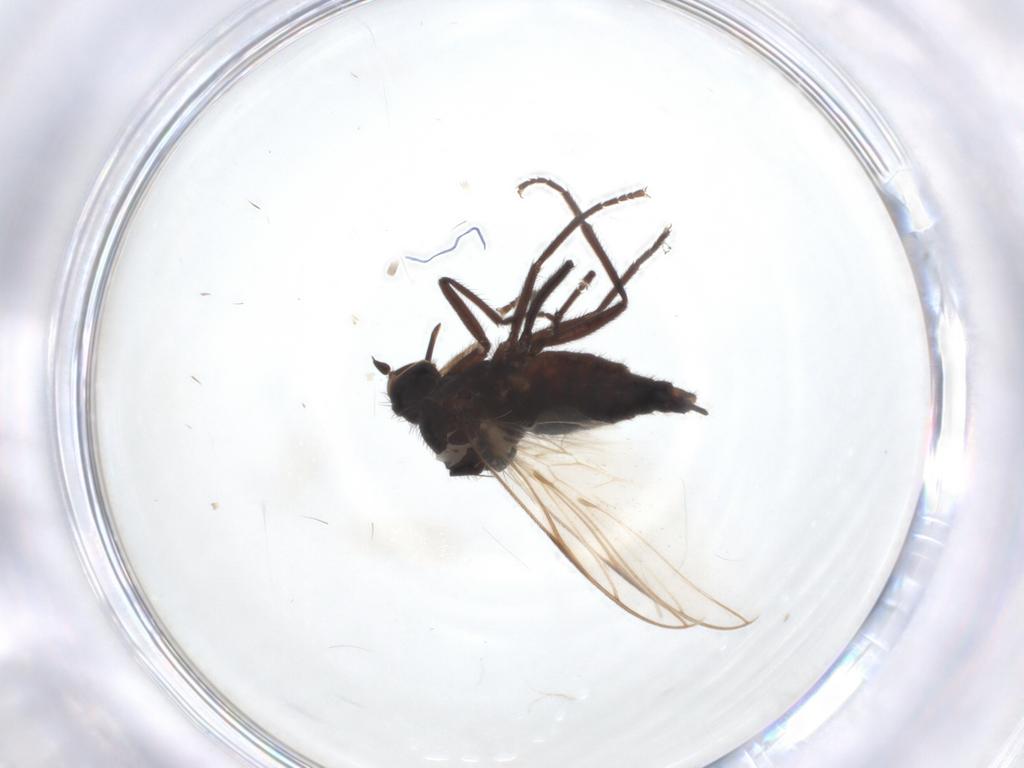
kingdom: Animalia
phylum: Arthropoda
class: Insecta
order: Diptera
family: Empididae
